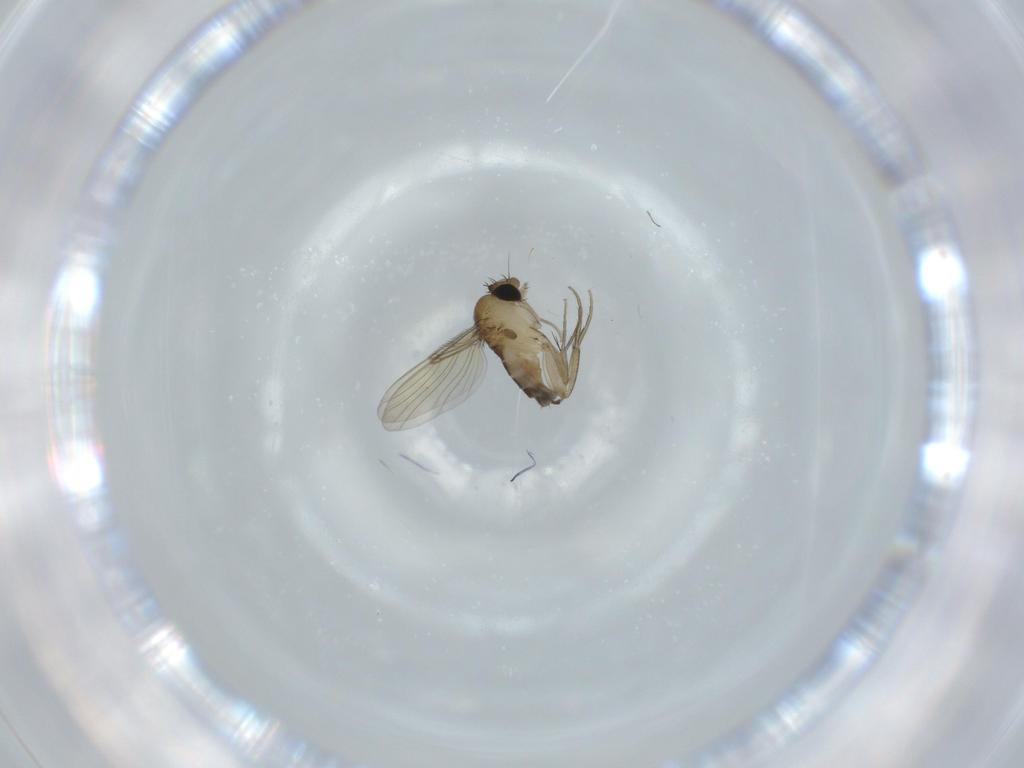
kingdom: Animalia
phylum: Arthropoda
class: Insecta
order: Diptera
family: Phoridae
